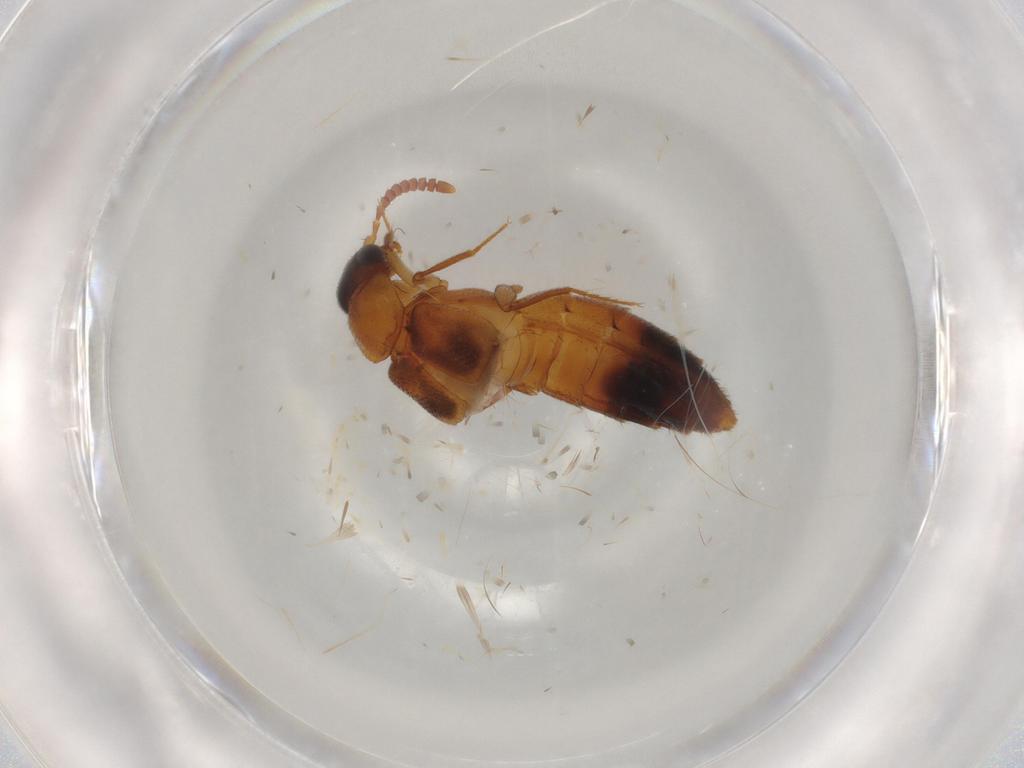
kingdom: Animalia
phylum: Arthropoda
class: Insecta
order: Coleoptera
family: Staphylinidae
